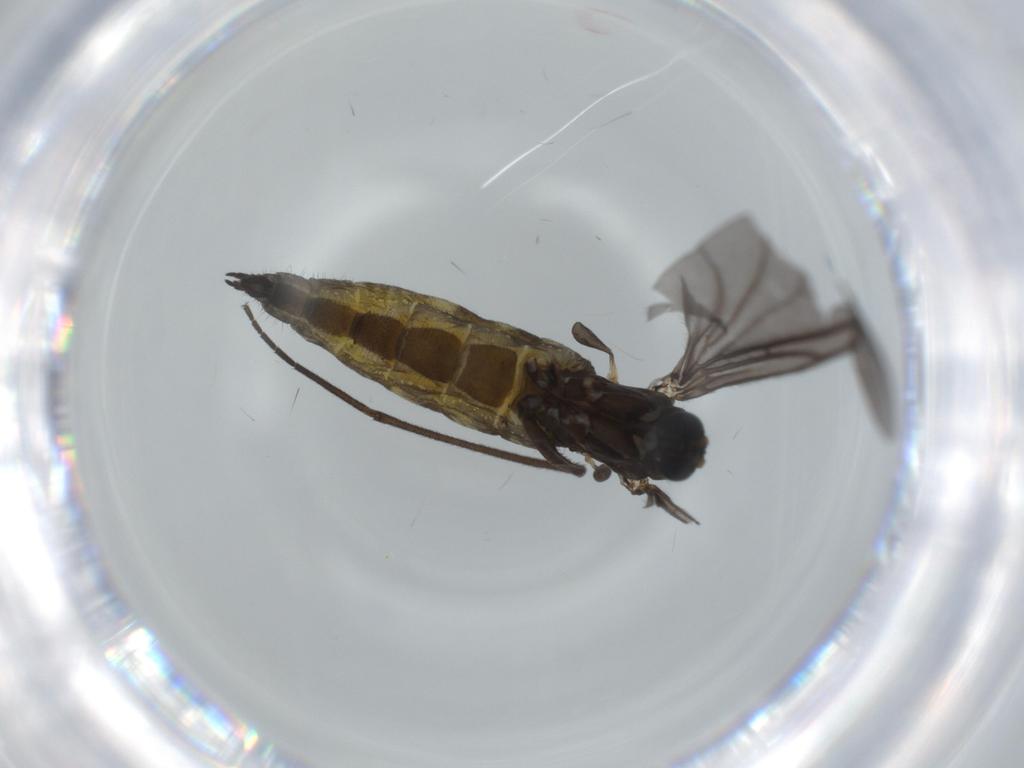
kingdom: Animalia
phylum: Arthropoda
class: Insecta
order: Diptera
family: Sciaridae
